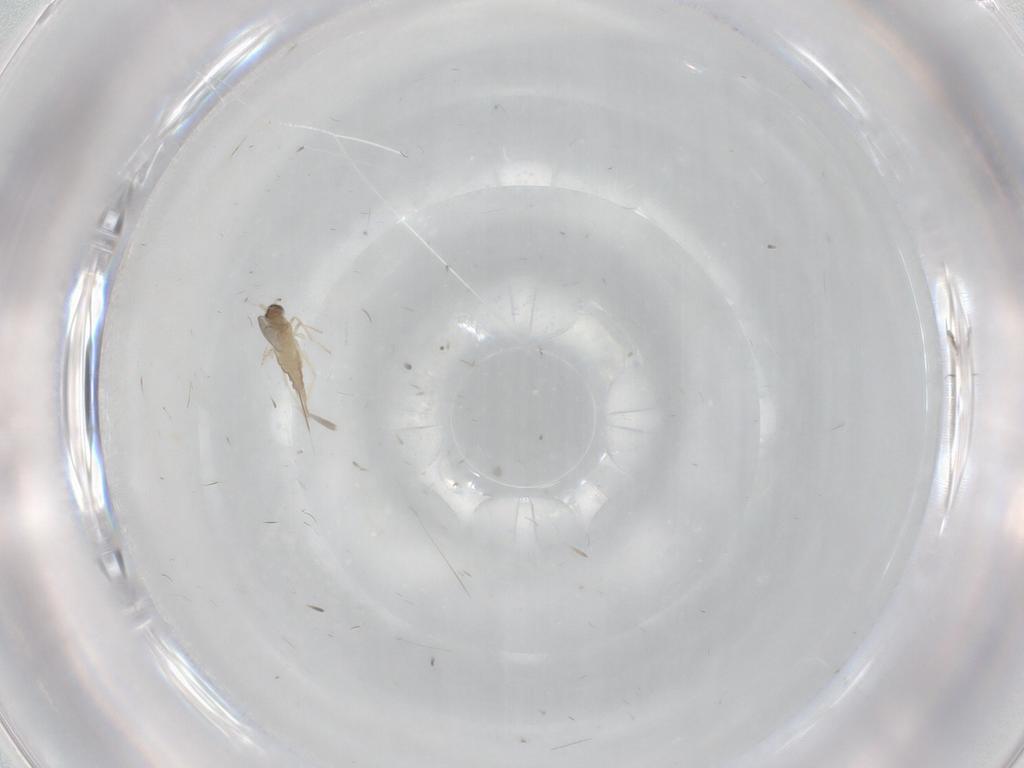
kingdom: Animalia
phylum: Arthropoda
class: Insecta
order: Diptera
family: Cecidomyiidae
